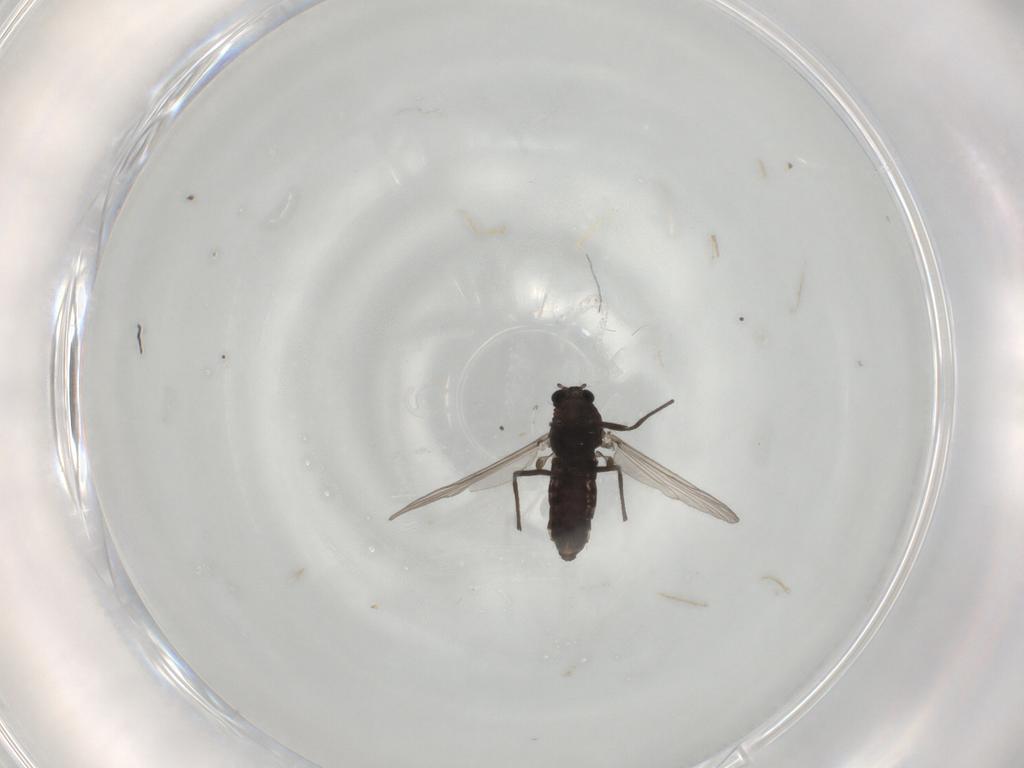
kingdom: Animalia
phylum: Arthropoda
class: Insecta
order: Diptera
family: Chironomidae
